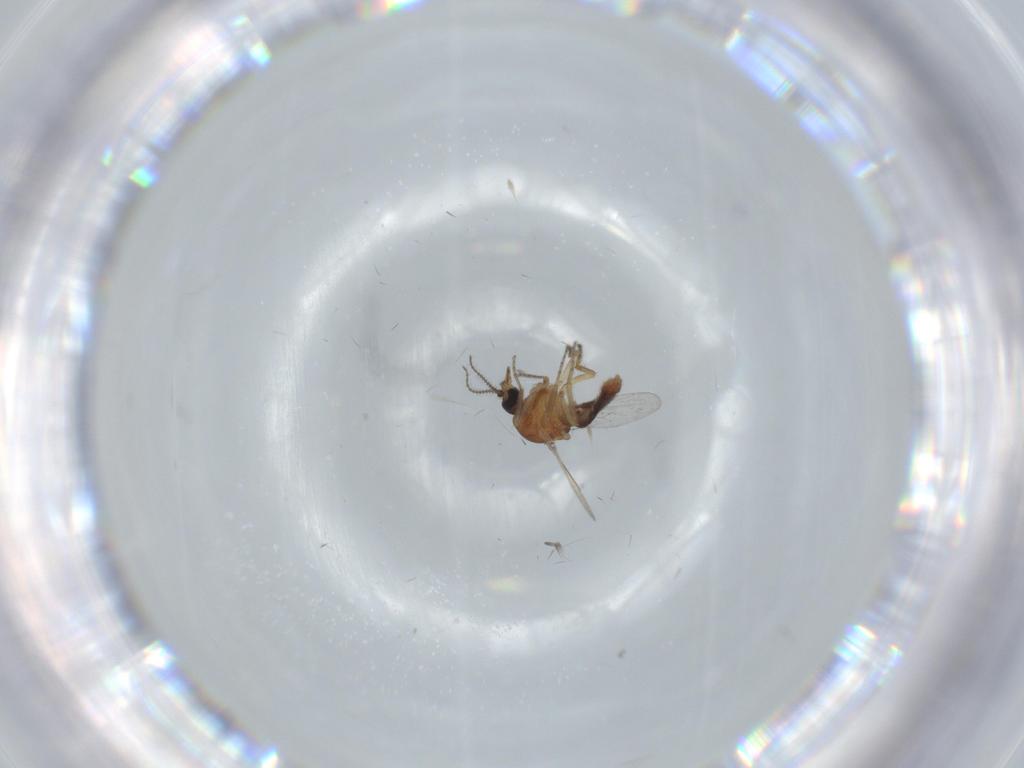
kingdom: Animalia
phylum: Arthropoda
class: Insecta
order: Diptera
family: Ceratopogonidae
